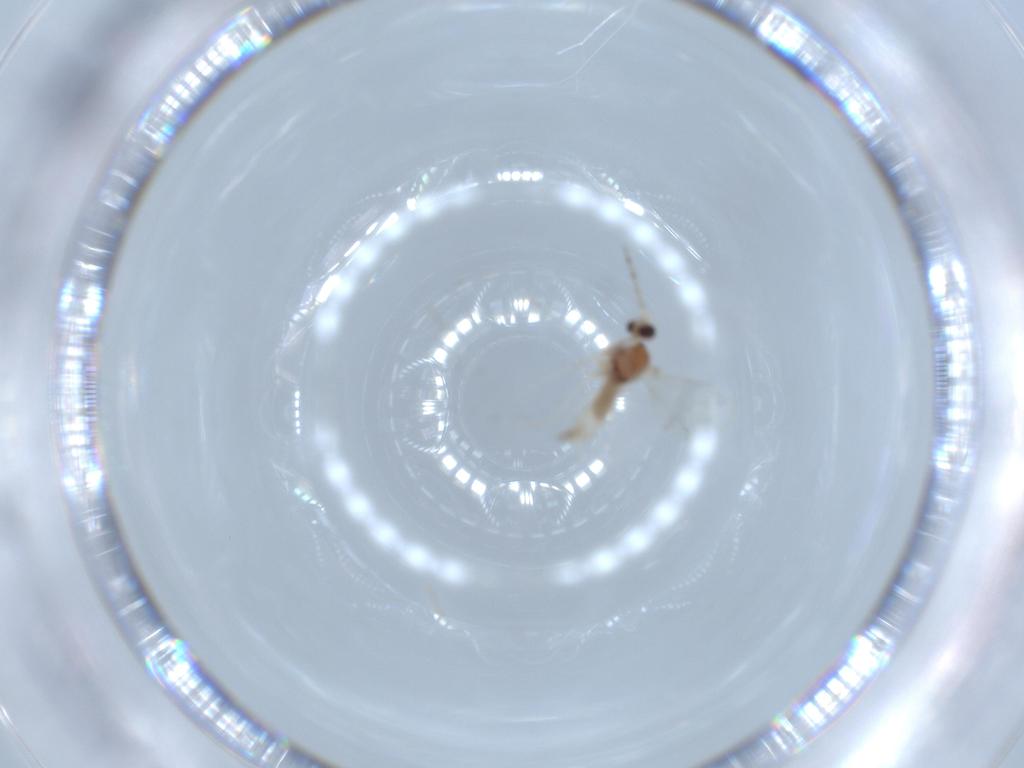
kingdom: Animalia
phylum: Arthropoda
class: Insecta
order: Diptera
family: Cecidomyiidae
